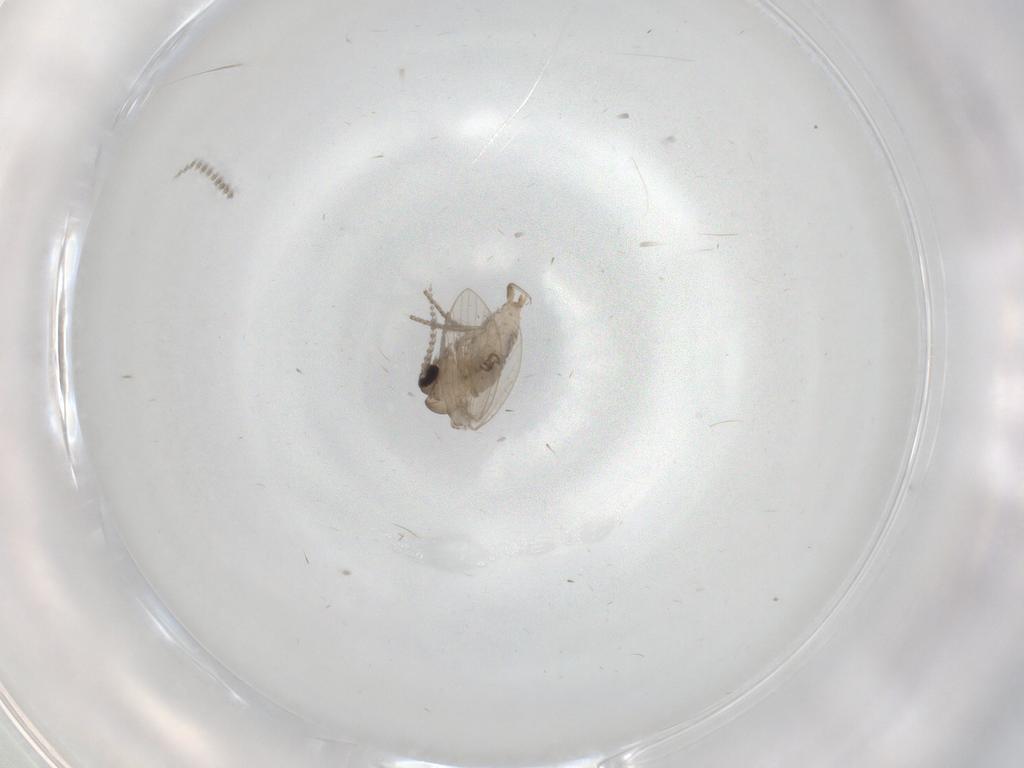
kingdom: Animalia
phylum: Arthropoda
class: Insecta
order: Diptera
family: Psychodidae
